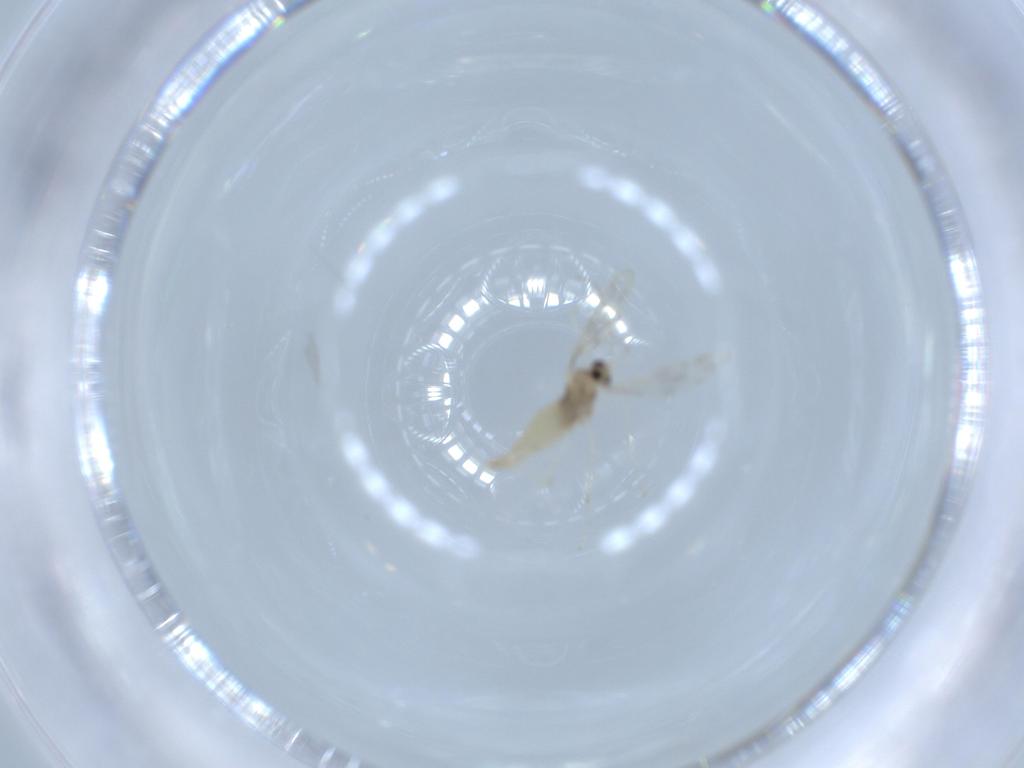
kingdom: Animalia
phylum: Arthropoda
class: Insecta
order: Diptera
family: Cecidomyiidae
